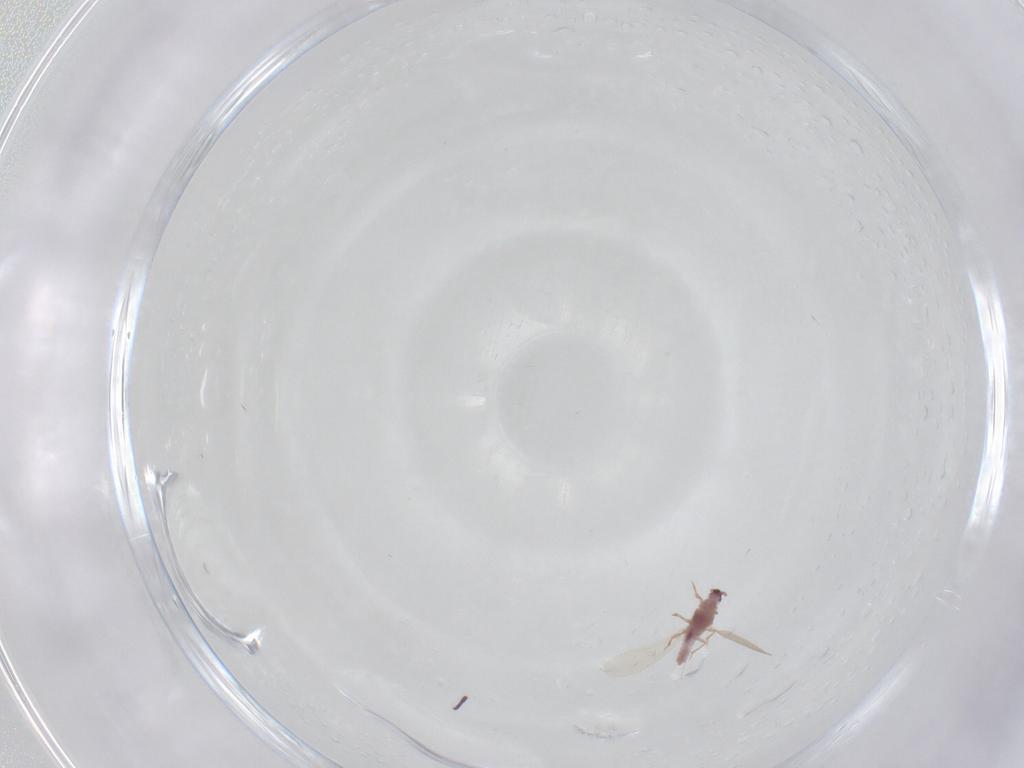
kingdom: Animalia
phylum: Arthropoda
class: Insecta
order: Hemiptera
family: Pseudococcidae
